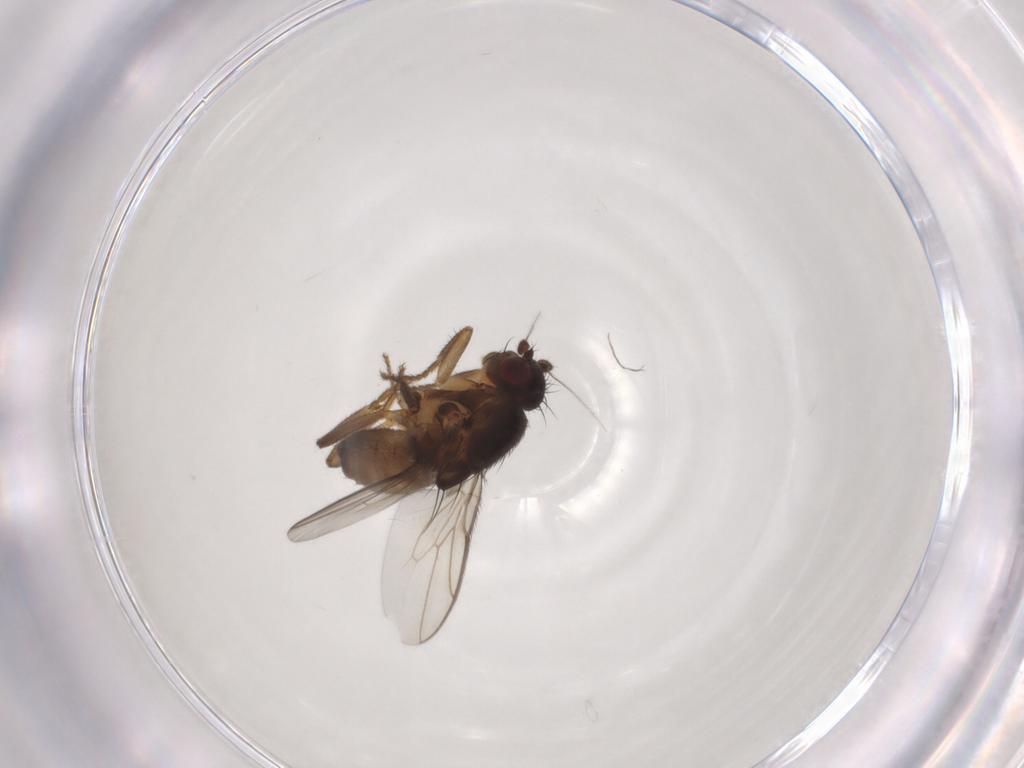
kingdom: Animalia
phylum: Arthropoda
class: Insecta
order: Diptera
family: Sphaeroceridae
